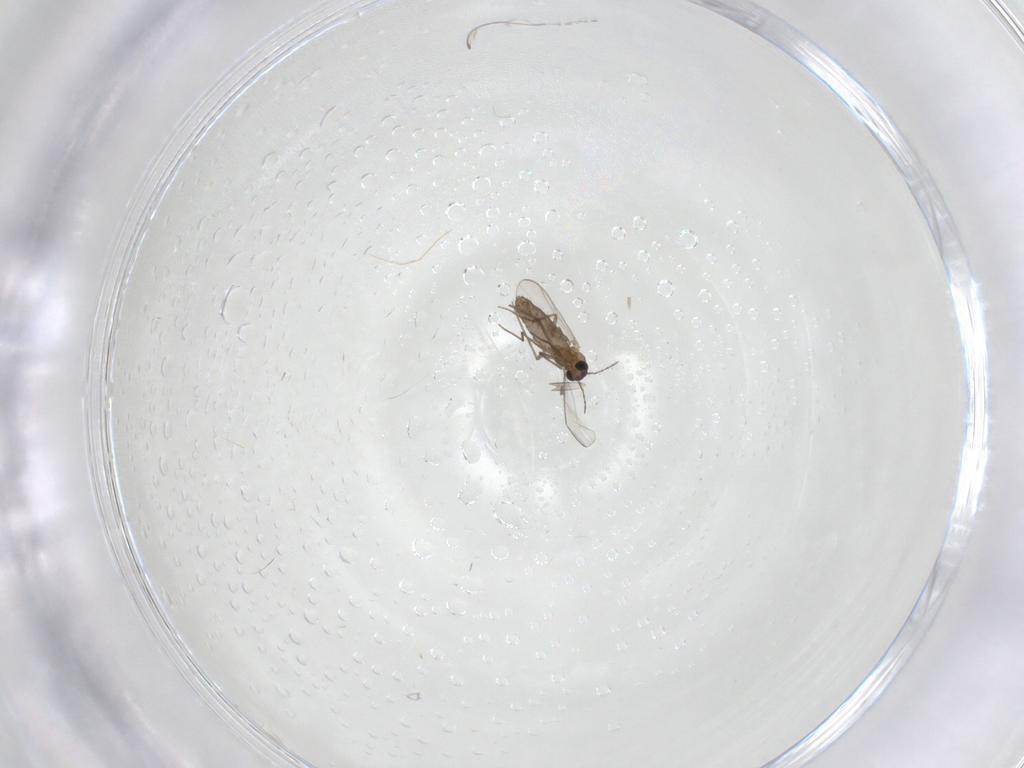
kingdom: Animalia
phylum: Arthropoda
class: Insecta
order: Diptera
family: Chironomidae
